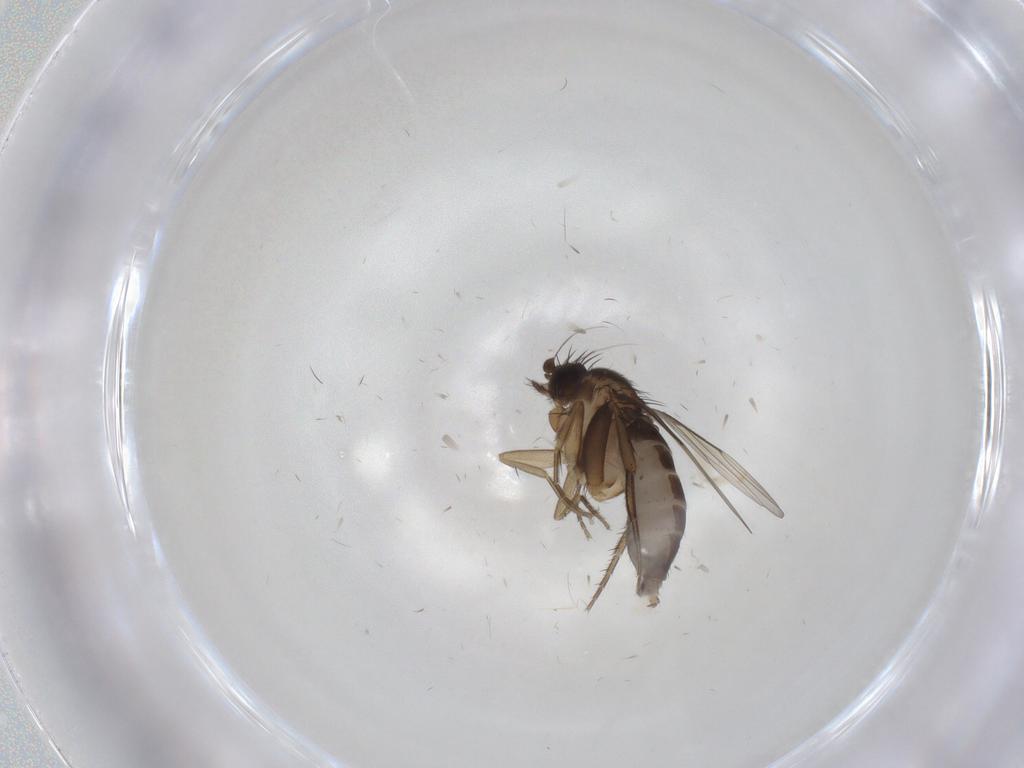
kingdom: Animalia
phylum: Arthropoda
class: Insecta
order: Diptera
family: Phoridae
